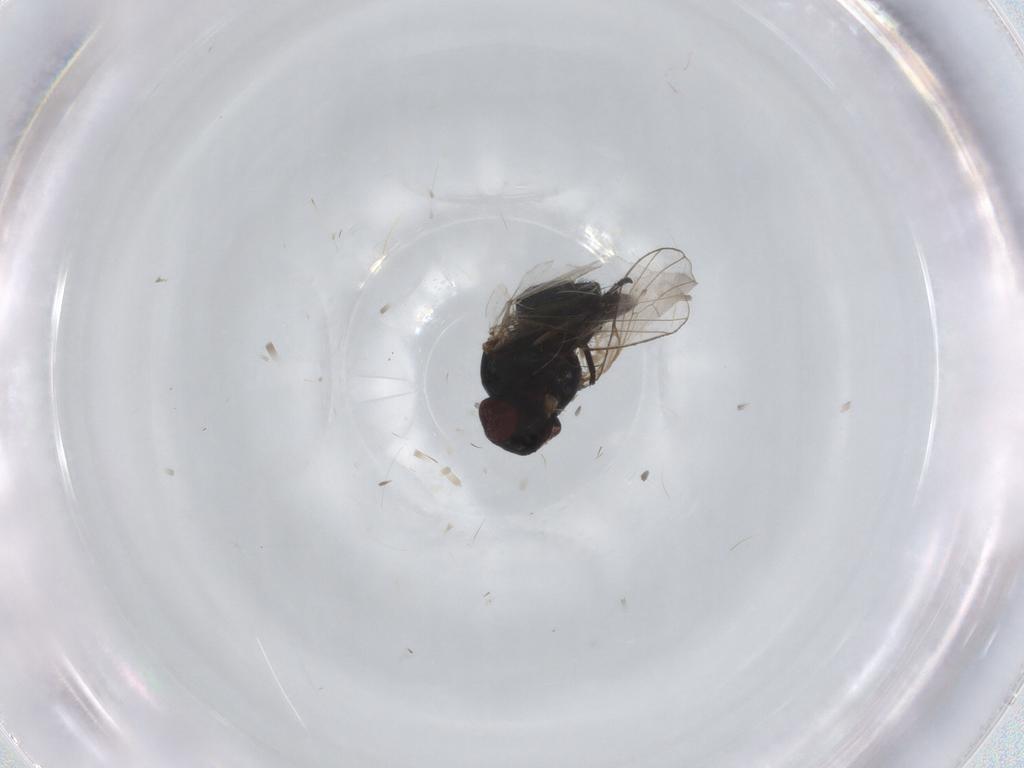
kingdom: Animalia
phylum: Arthropoda
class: Insecta
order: Diptera
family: Agromyzidae
